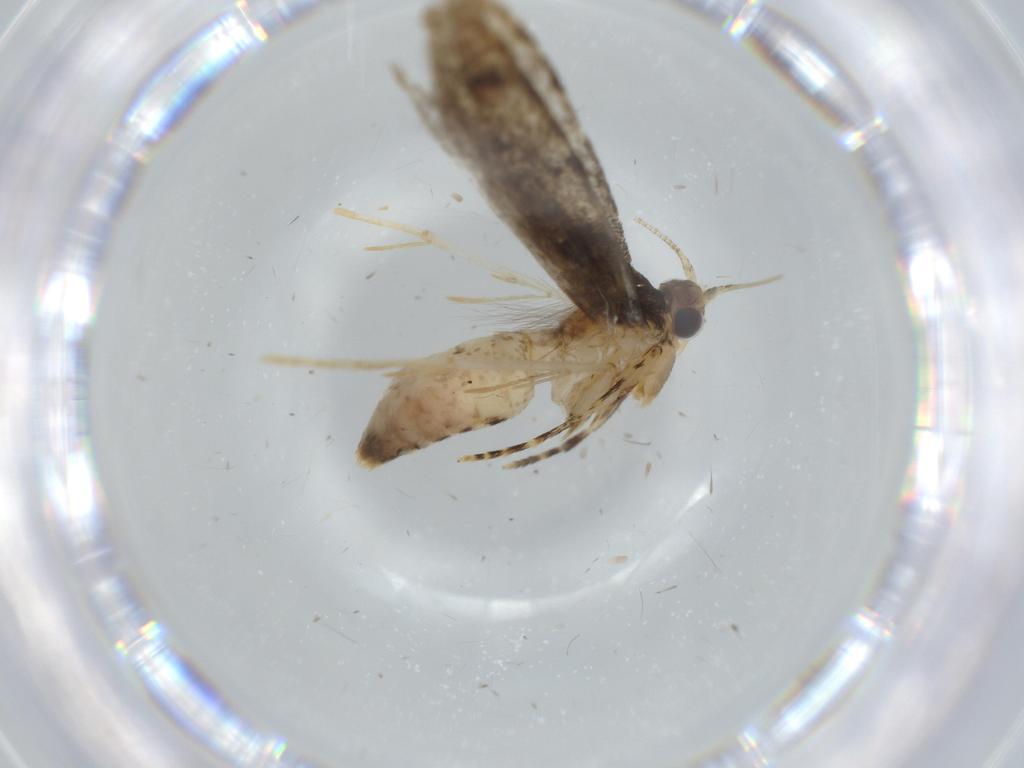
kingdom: Animalia
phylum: Arthropoda
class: Insecta
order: Lepidoptera
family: Tineidae
